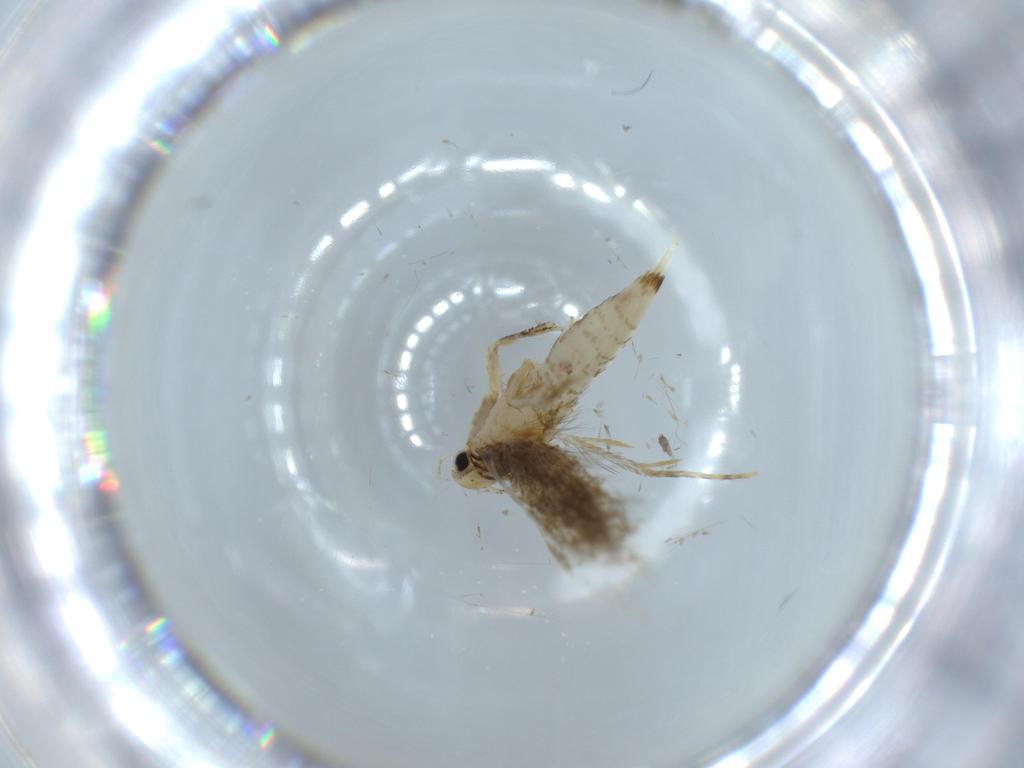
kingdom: Animalia
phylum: Arthropoda
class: Insecta
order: Lepidoptera
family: Tineidae
